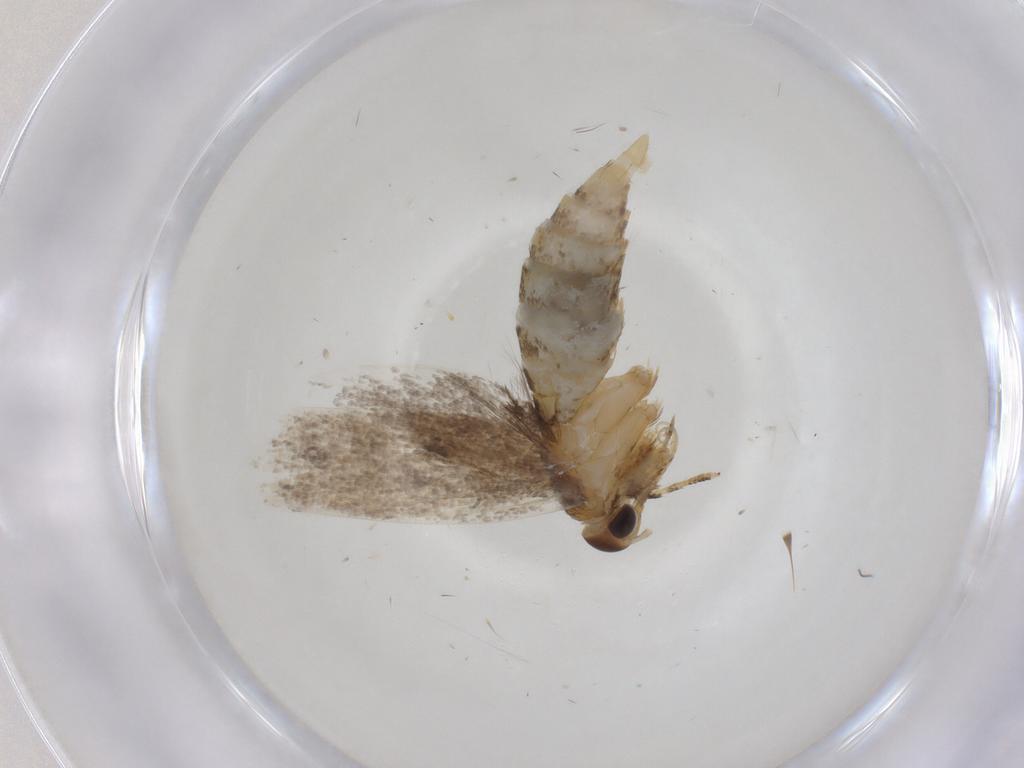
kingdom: Animalia
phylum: Arthropoda
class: Insecta
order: Lepidoptera
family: Oecophoridae
